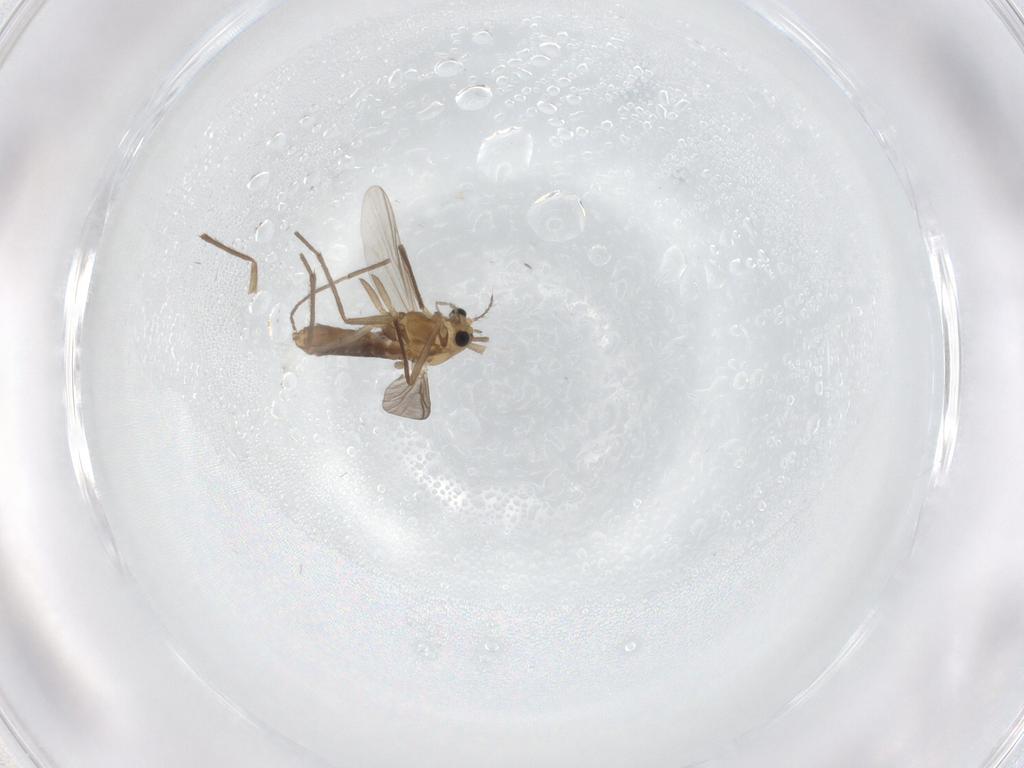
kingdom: Animalia
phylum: Arthropoda
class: Insecta
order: Diptera
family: Chironomidae
